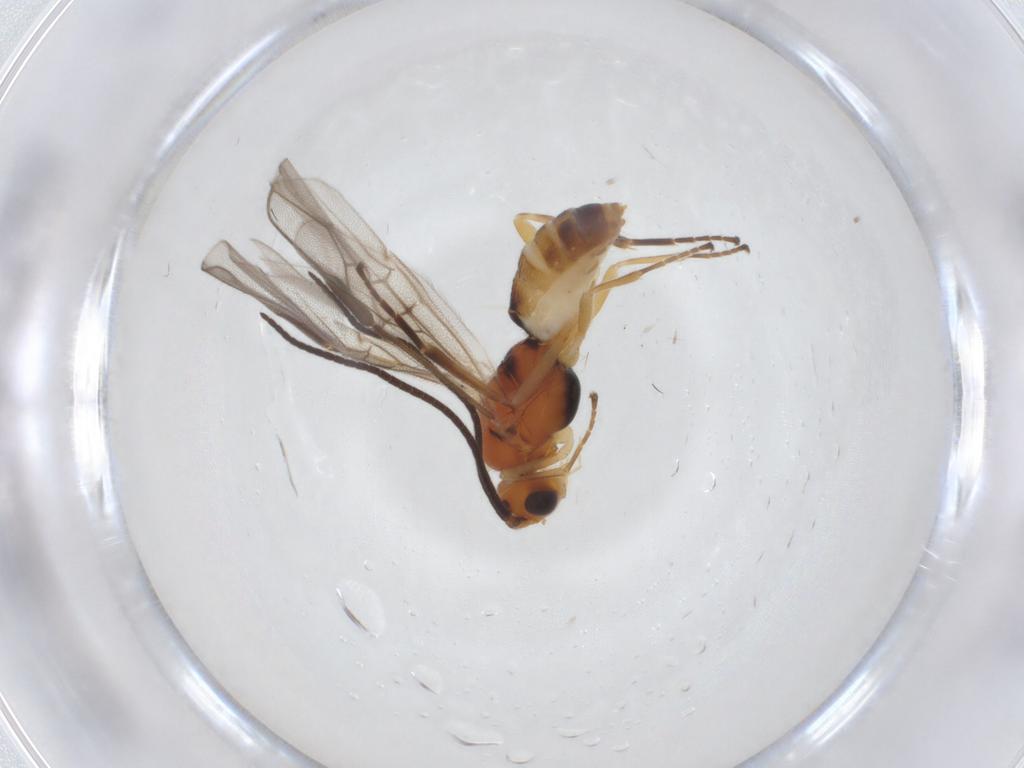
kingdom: Animalia
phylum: Arthropoda
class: Insecta
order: Hymenoptera
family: Braconidae
